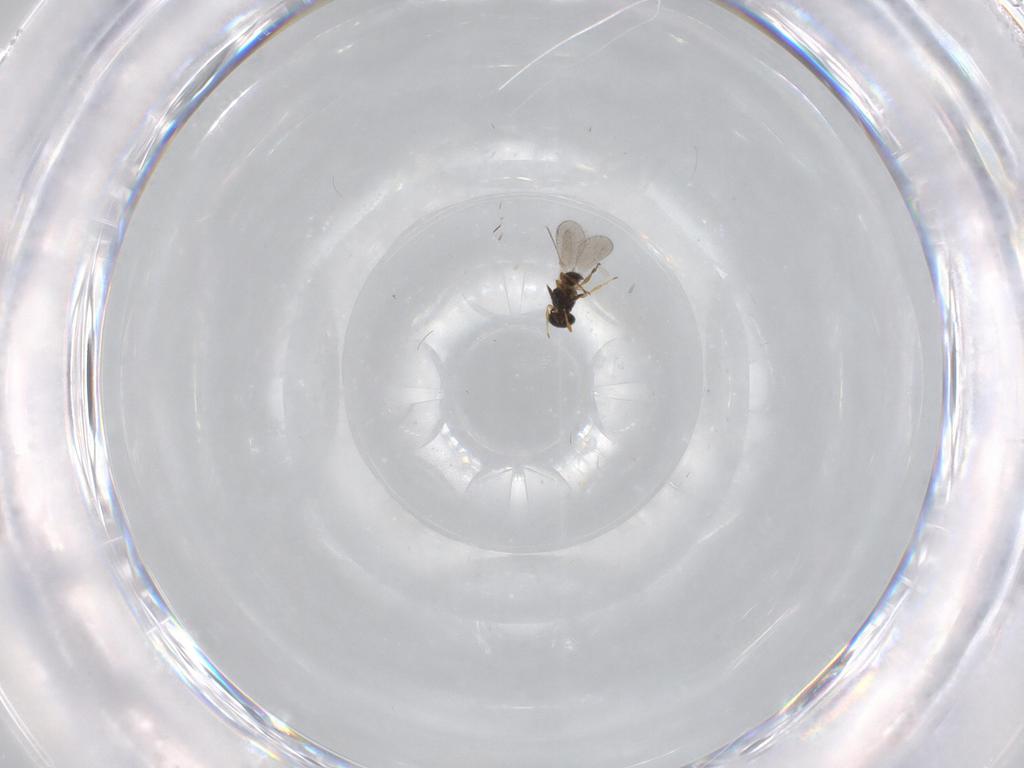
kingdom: Animalia
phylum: Arthropoda
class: Insecta
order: Hymenoptera
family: Platygastridae
